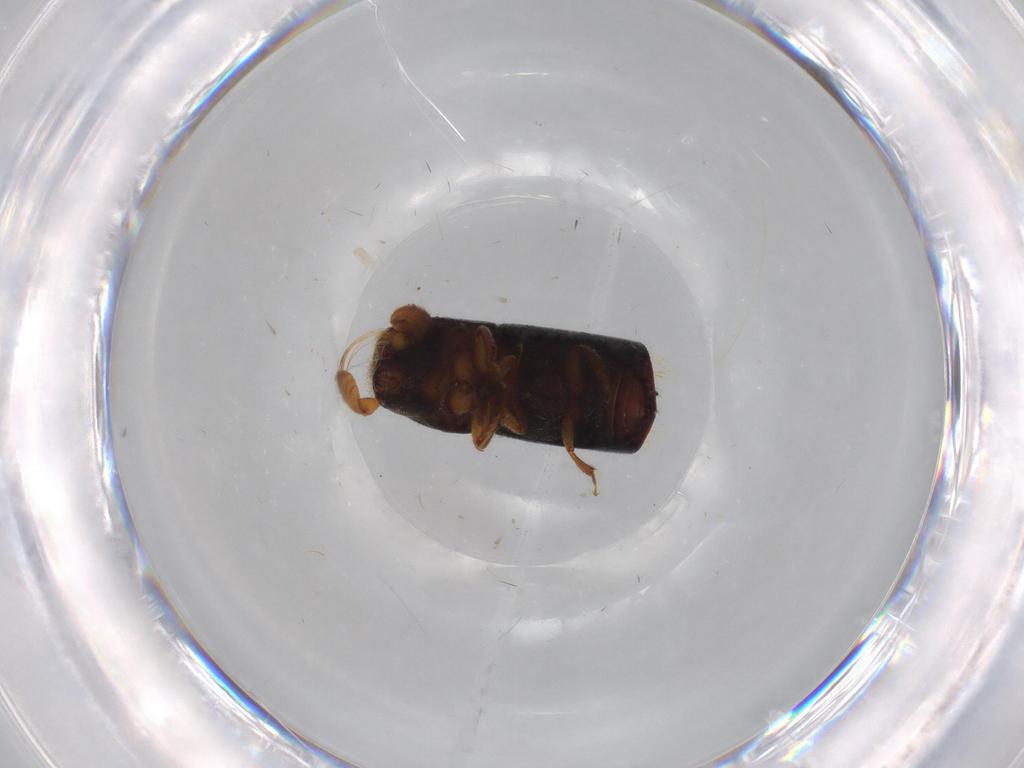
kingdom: Animalia
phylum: Arthropoda
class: Insecta
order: Coleoptera
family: Curculionidae
